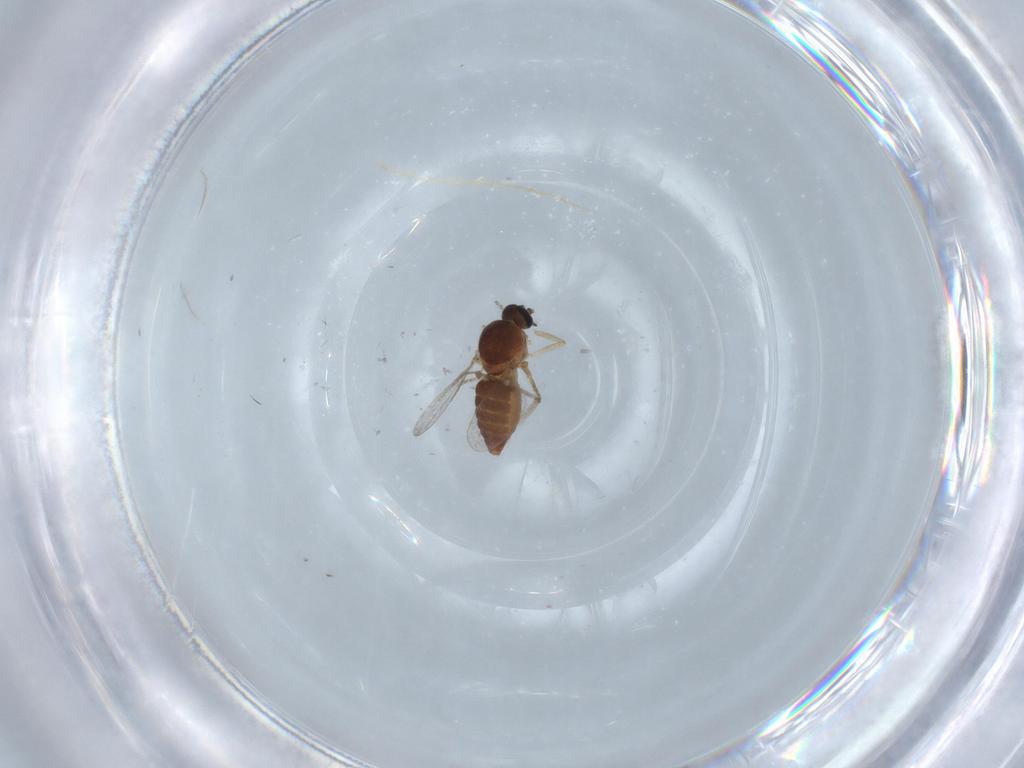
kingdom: Animalia
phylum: Arthropoda
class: Insecta
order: Diptera
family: Ceratopogonidae
